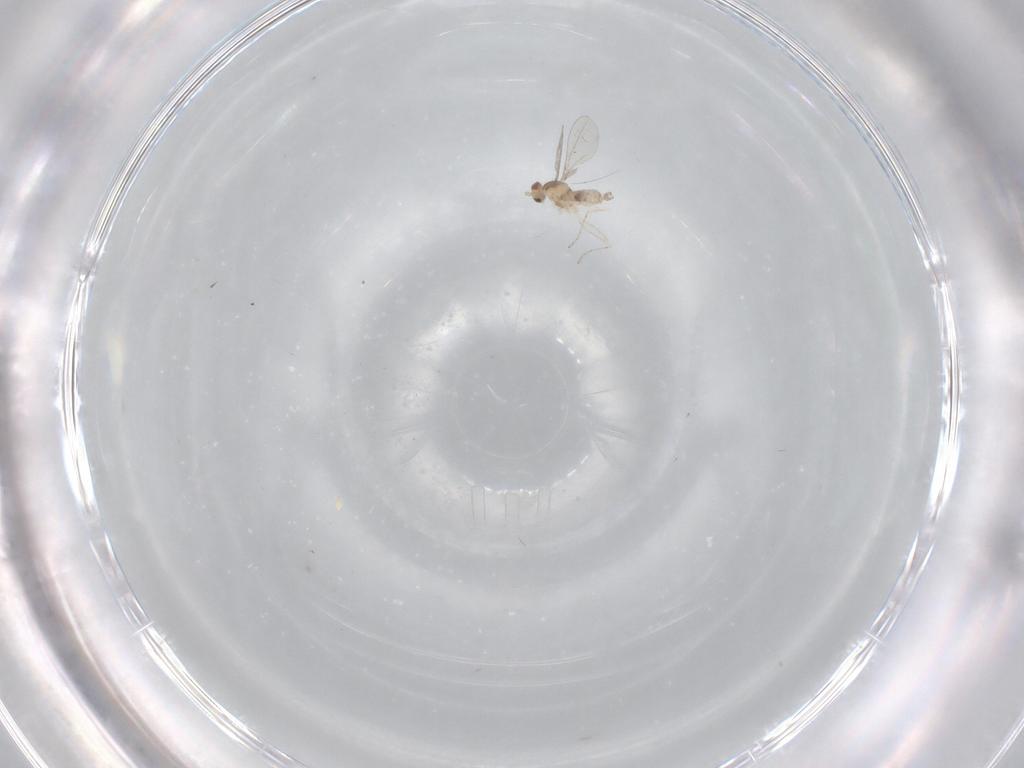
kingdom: Animalia
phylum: Arthropoda
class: Insecta
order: Diptera
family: Cecidomyiidae
